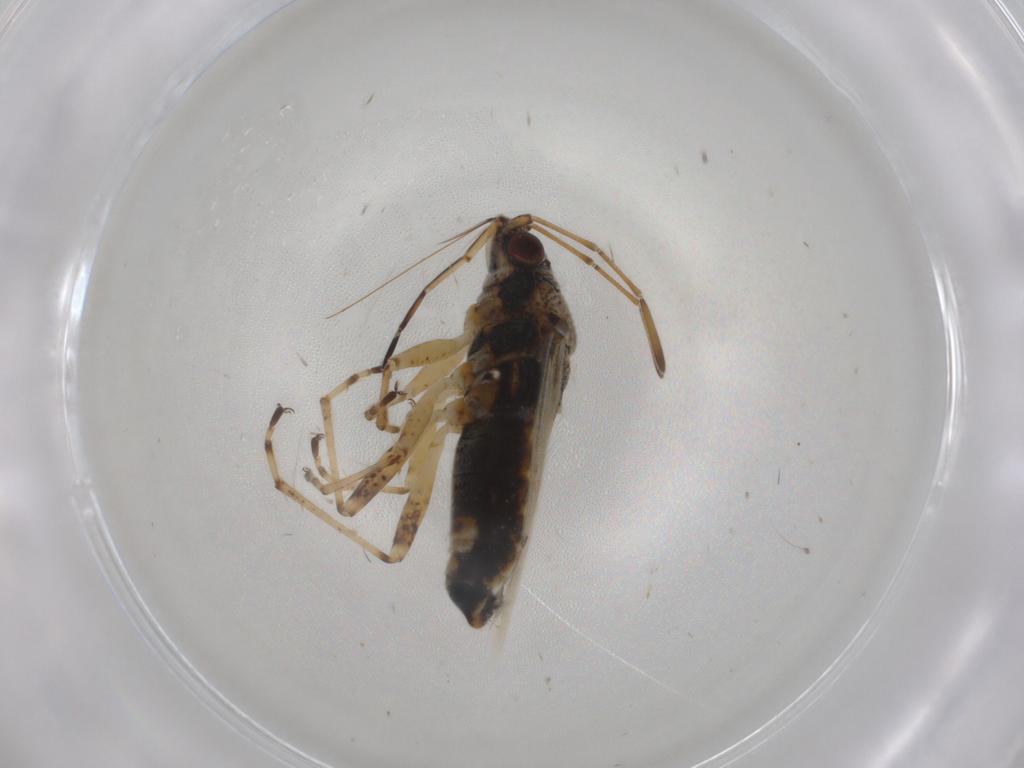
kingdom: Animalia
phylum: Arthropoda
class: Insecta
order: Hemiptera
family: Lygaeidae
